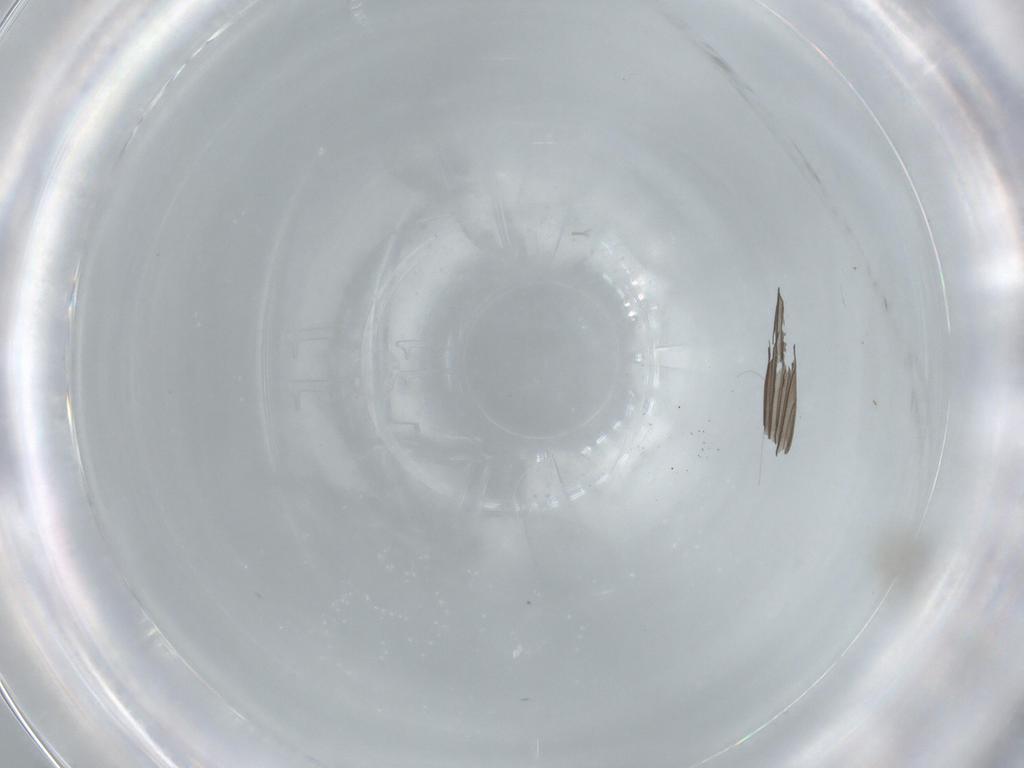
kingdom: Animalia
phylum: Arthropoda
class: Insecta
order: Diptera
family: Cecidomyiidae
